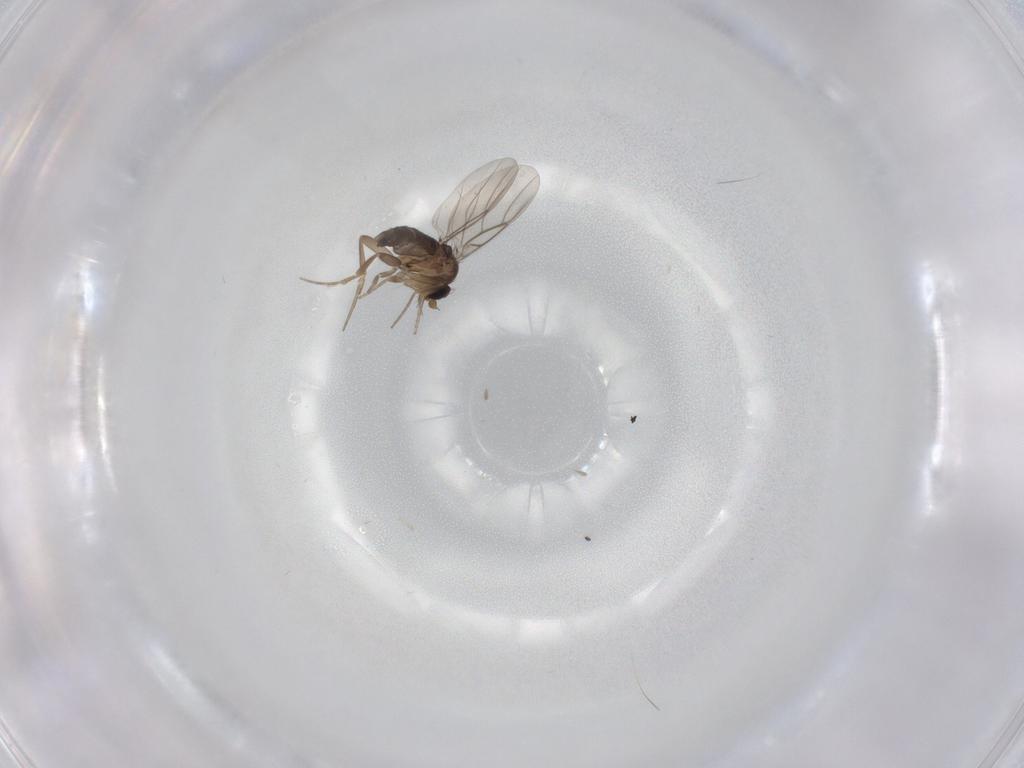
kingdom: Animalia
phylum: Arthropoda
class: Insecta
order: Diptera
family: Phoridae
